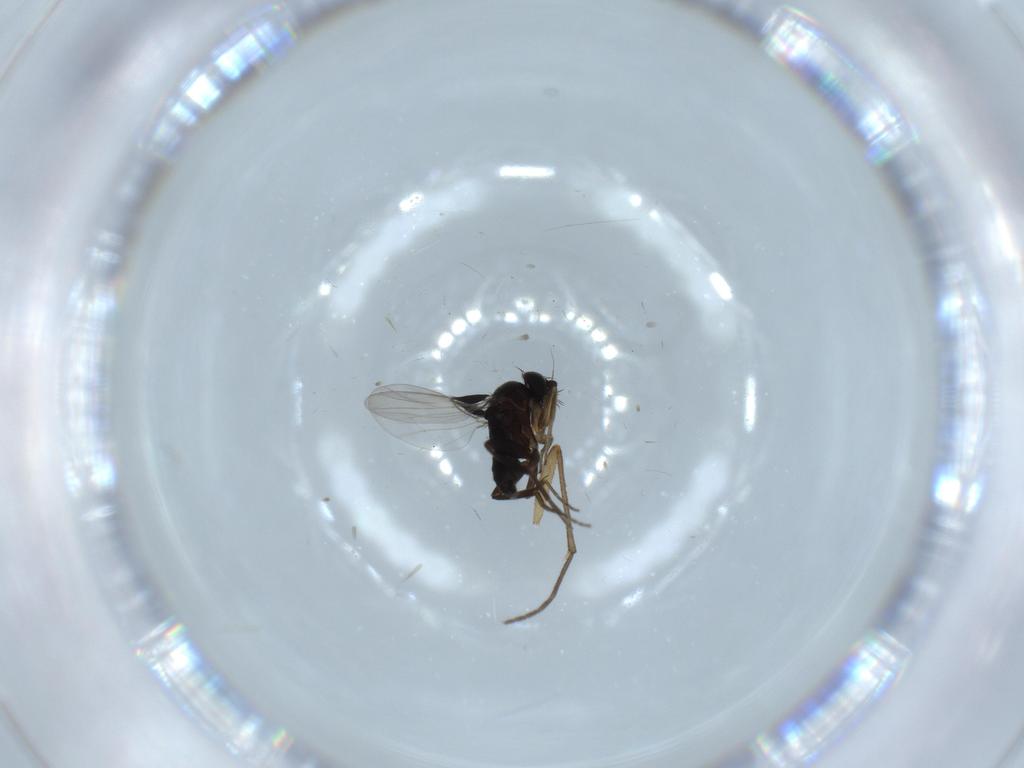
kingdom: Animalia
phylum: Arthropoda
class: Insecta
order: Diptera
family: Phoridae
